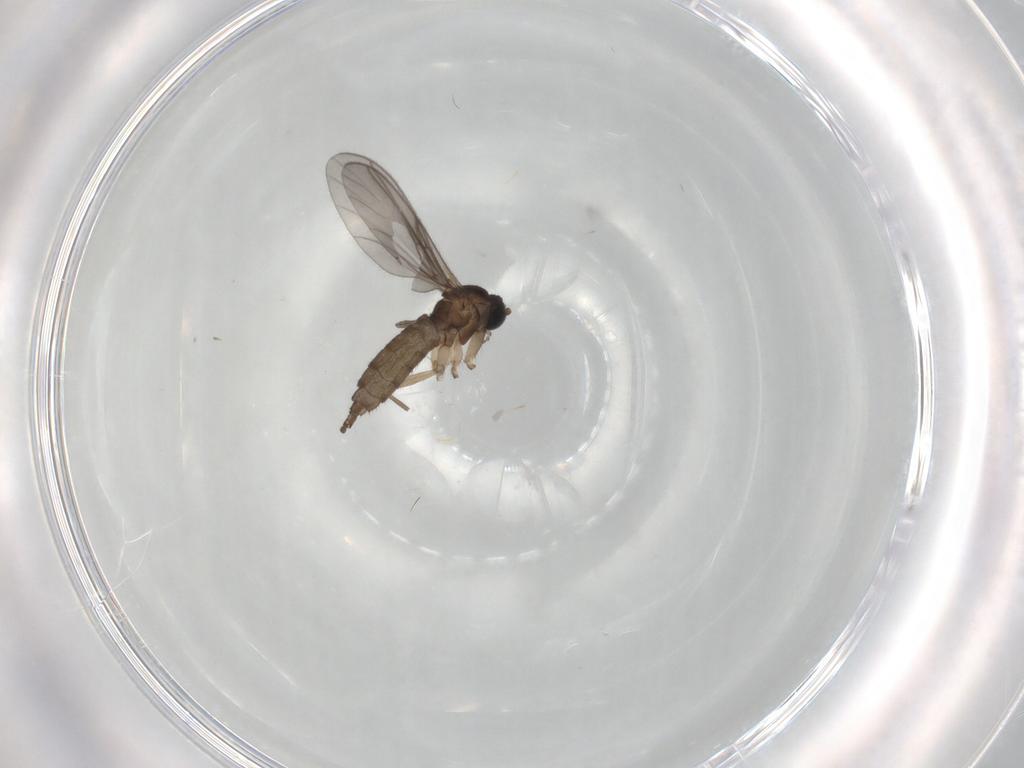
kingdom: Animalia
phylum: Arthropoda
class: Insecta
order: Diptera
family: Sciaridae
